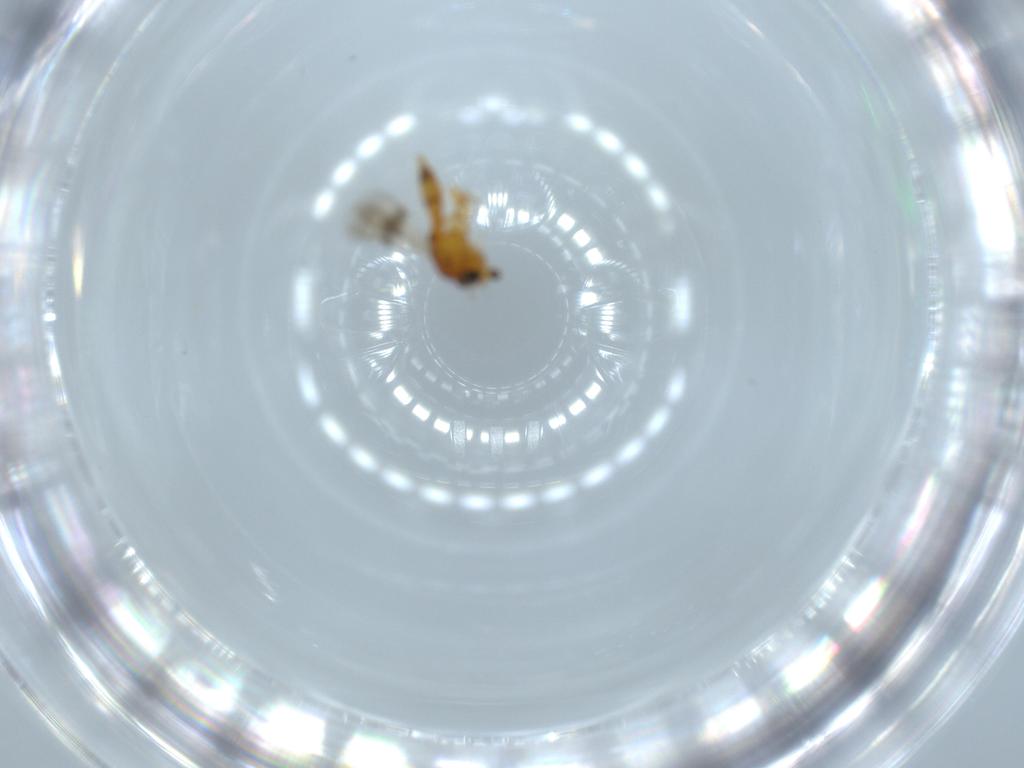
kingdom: Animalia
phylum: Arthropoda
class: Insecta
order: Hymenoptera
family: Scelionidae
